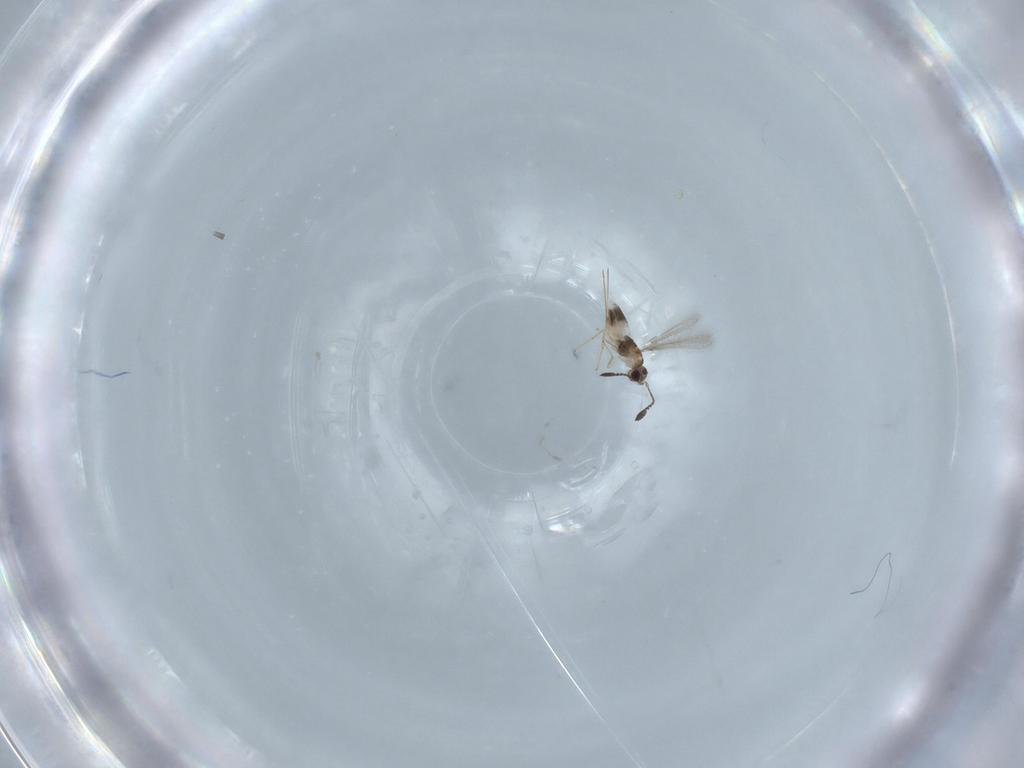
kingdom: Animalia
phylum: Arthropoda
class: Insecta
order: Hymenoptera
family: Mymaridae
